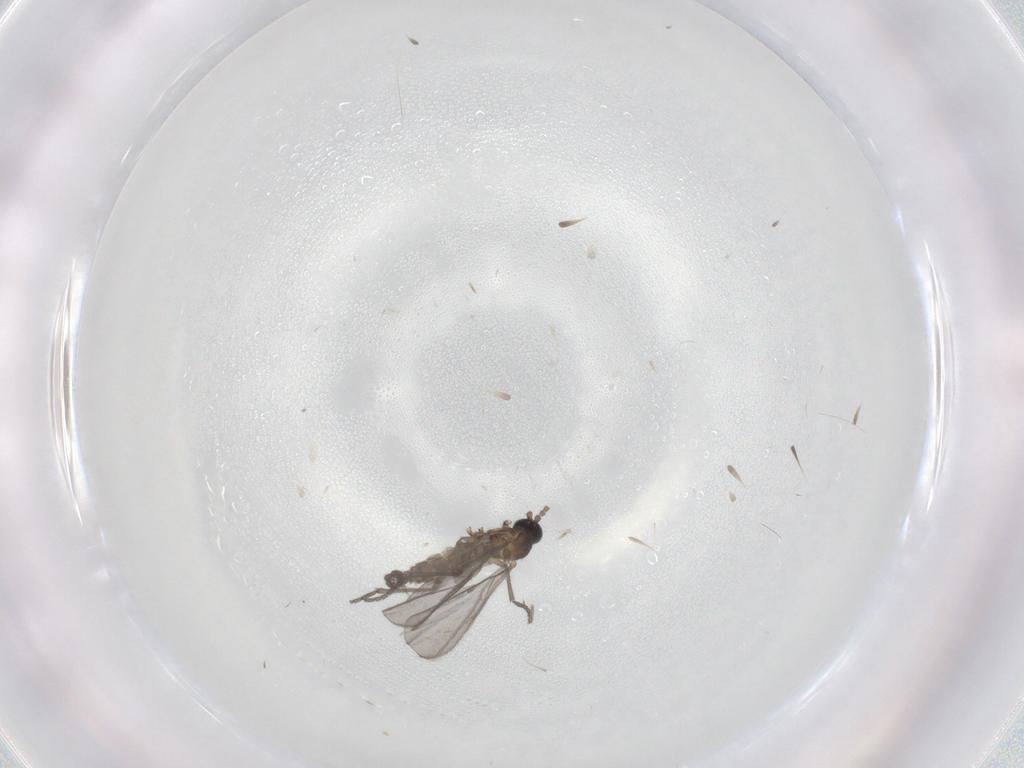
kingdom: Animalia
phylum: Arthropoda
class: Insecta
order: Diptera
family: Sciaridae
